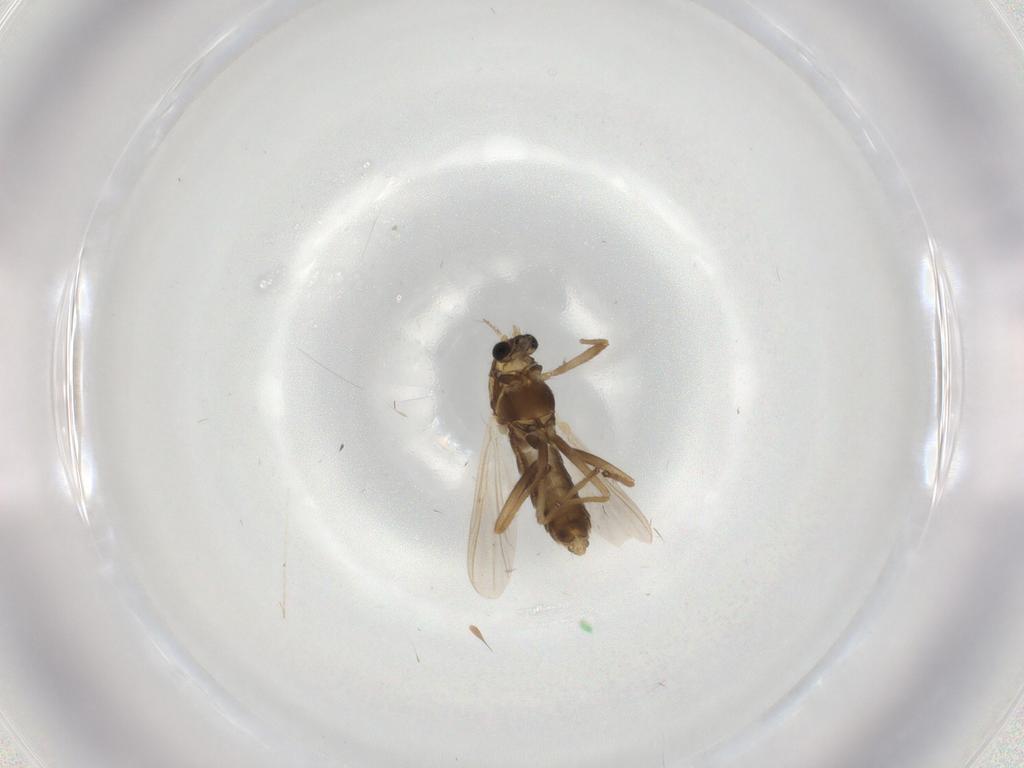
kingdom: Animalia
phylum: Arthropoda
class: Insecta
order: Diptera
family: Chironomidae
